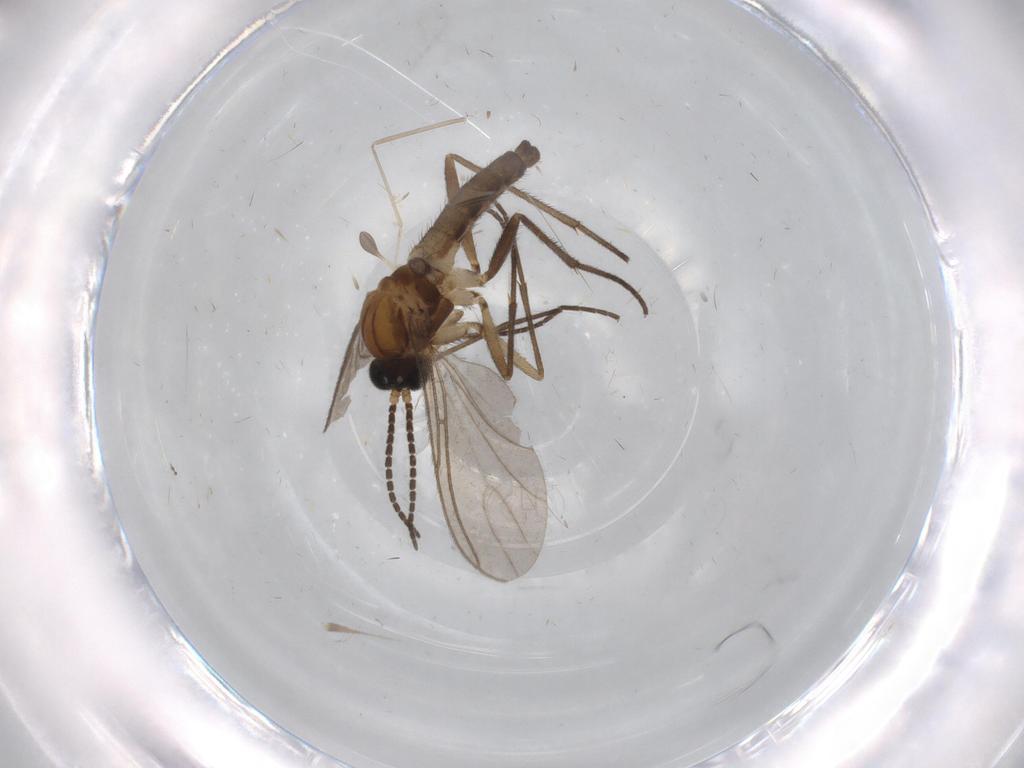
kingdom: Animalia
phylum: Arthropoda
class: Insecta
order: Diptera
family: Sciaridae
